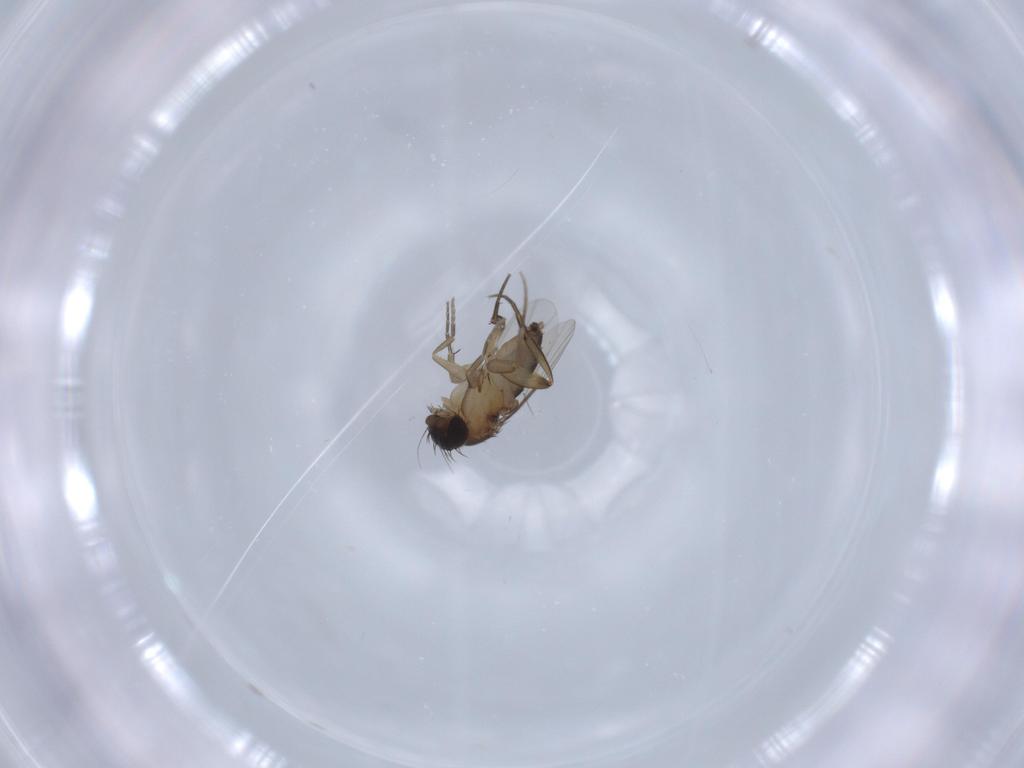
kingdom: Animalia
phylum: Arthropoda
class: Insecta
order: Diptera
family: Phoridae
